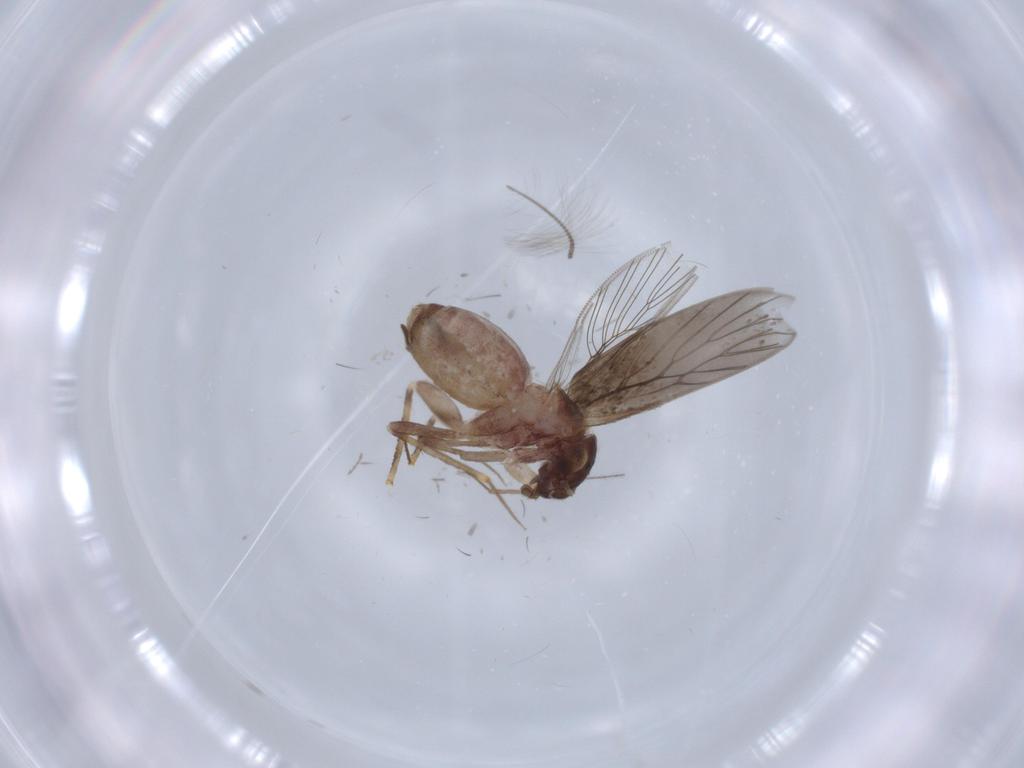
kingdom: Animalia
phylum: Arthropoda
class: Insecta
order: Psocodea
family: Lepidopsocidae
